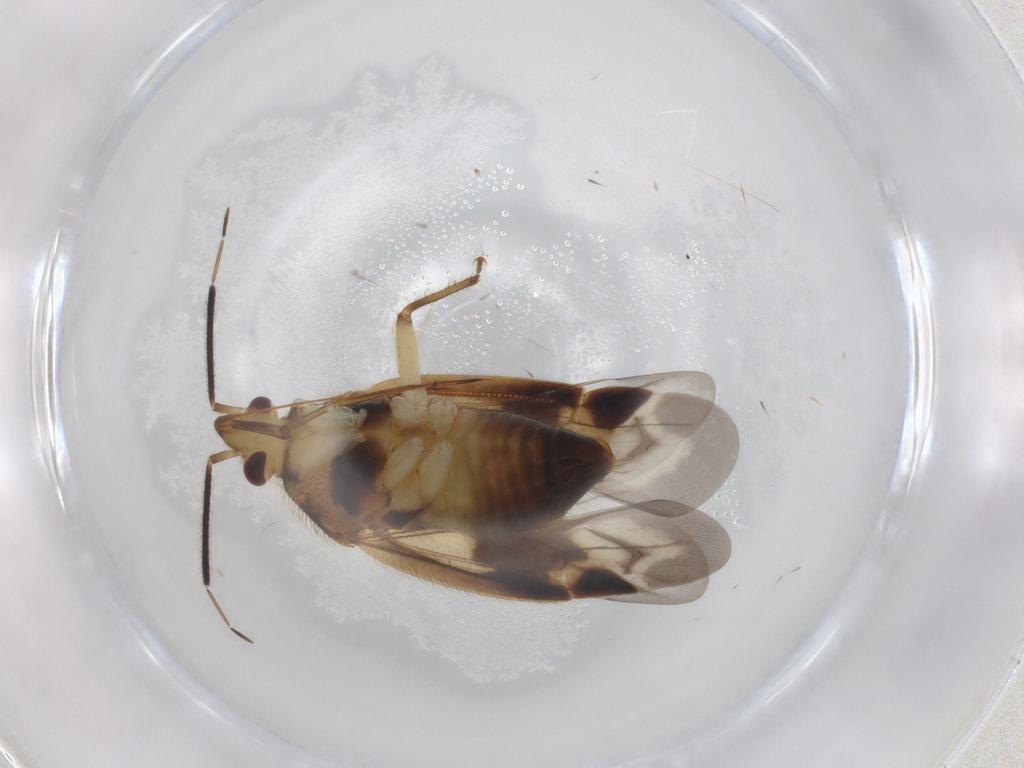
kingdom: Animalia
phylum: Arthropoda
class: Insecta
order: Hemiptera
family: Miridae
